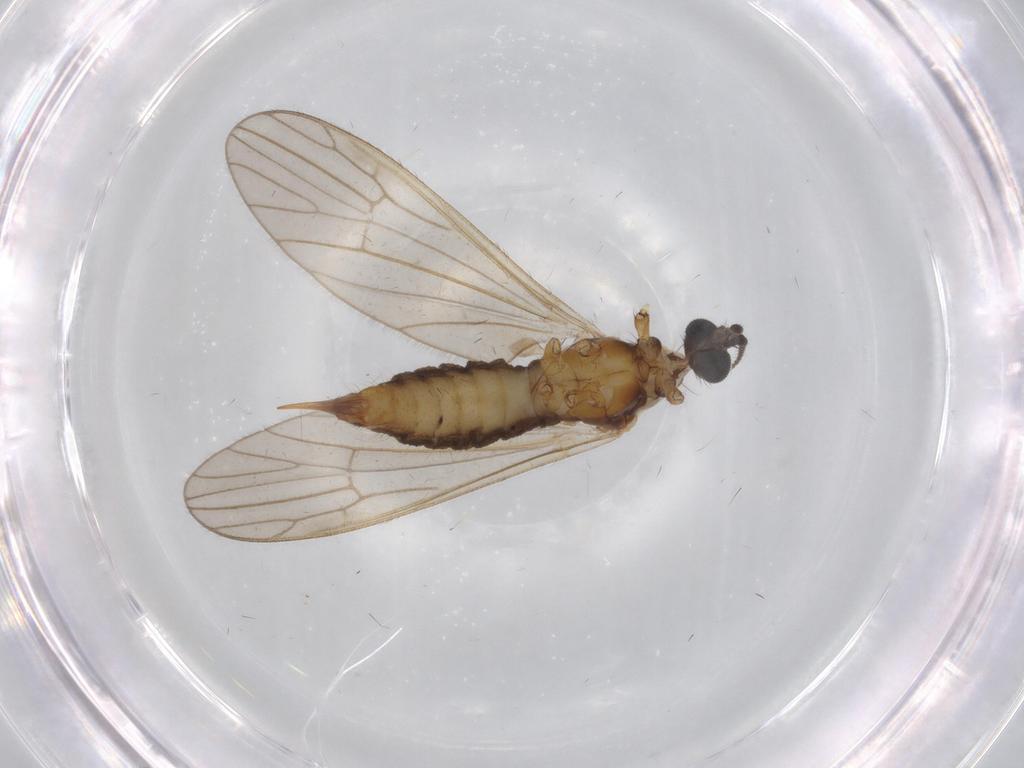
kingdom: Animalia
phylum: Arthropoda
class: Insecta
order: Diptera
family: Agromyzidae
